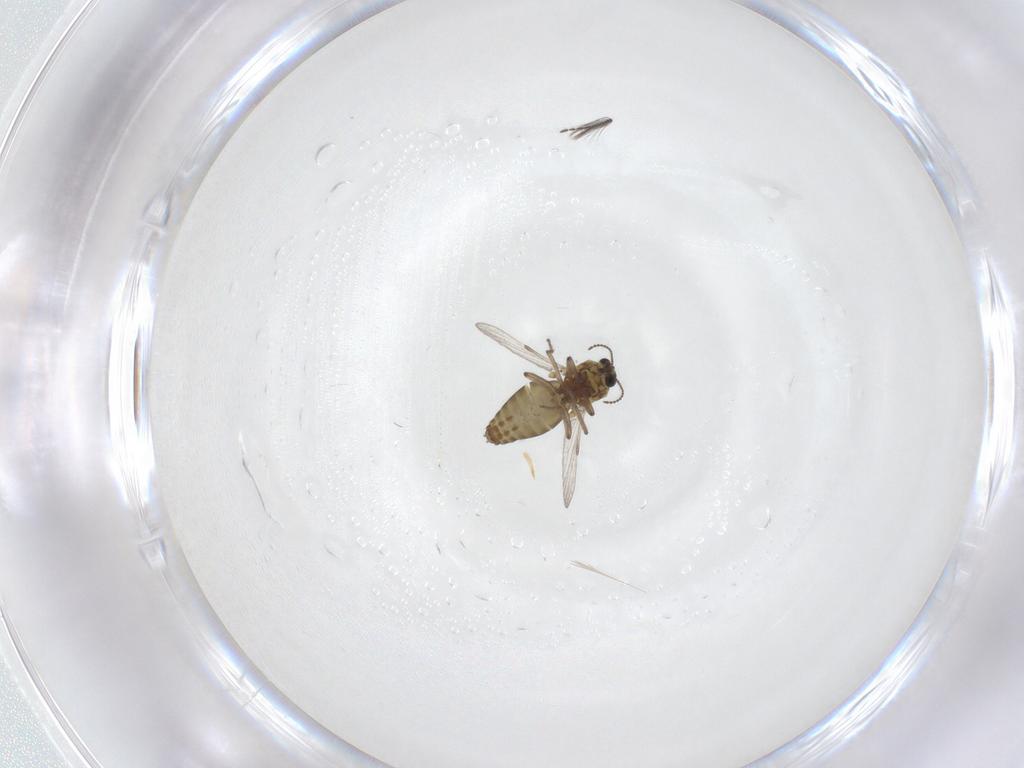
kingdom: Animalia
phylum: Arthropoda
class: Insecta
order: Diptera
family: Ceratopogonidae
